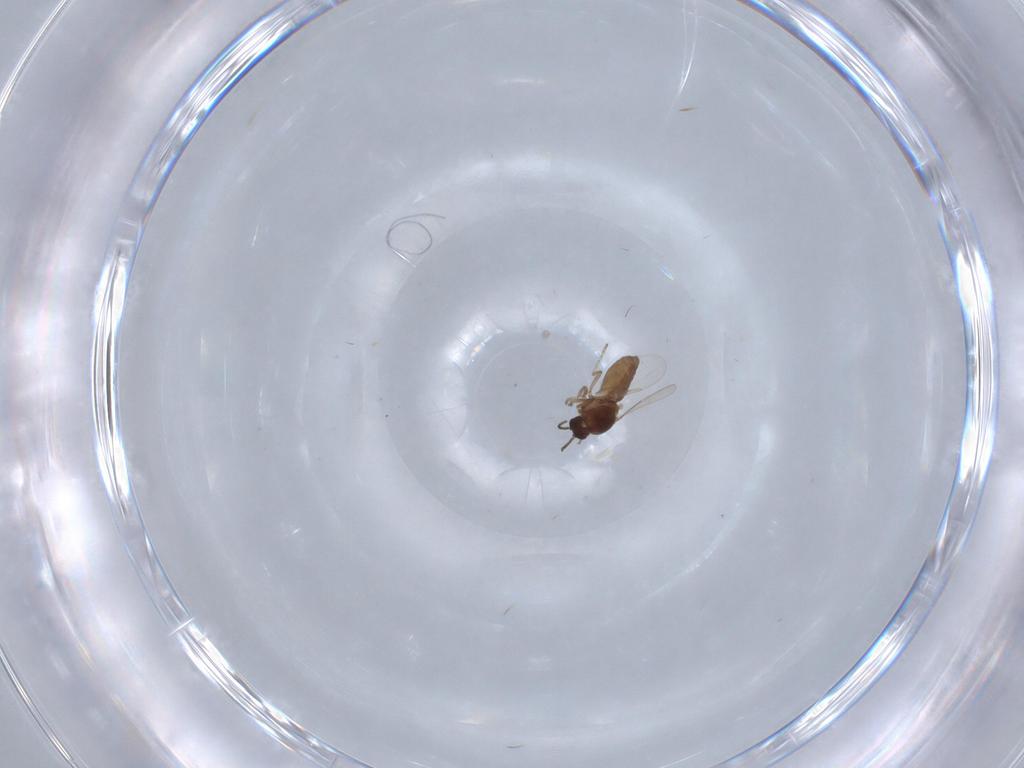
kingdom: Animalia
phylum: Arthropoda
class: Insecta
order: Diptera
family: Ceratopogonidae
